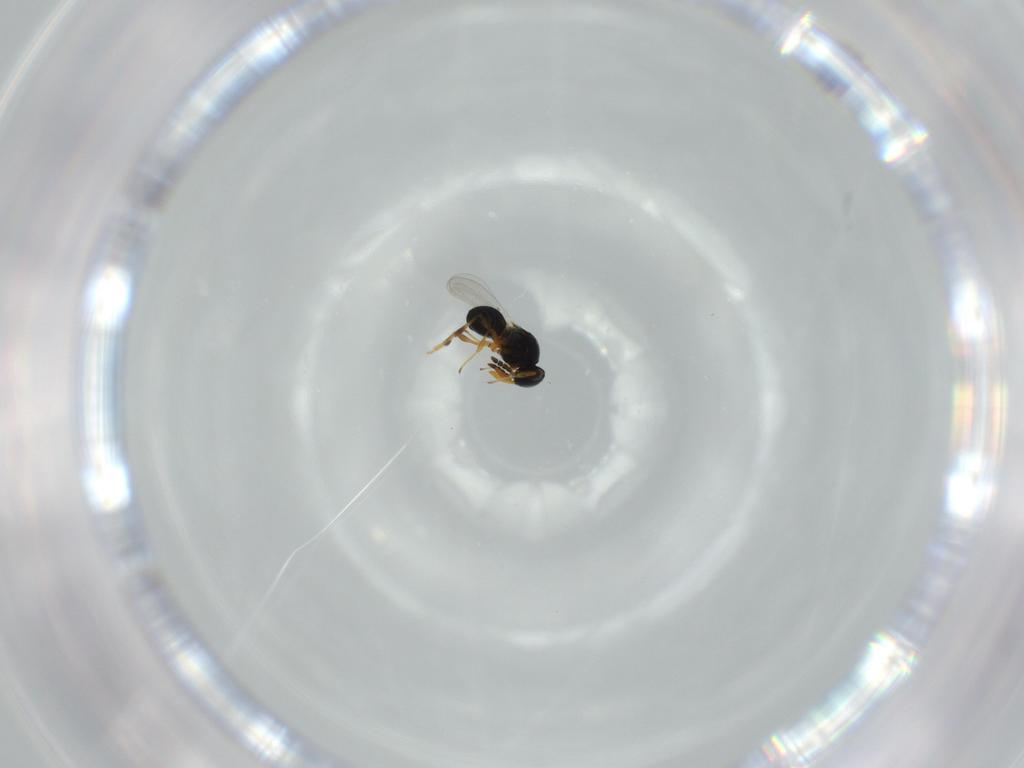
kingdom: Animalia
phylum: Arthropoda
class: Insecta
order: Hymenoptera
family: Platygastridae
